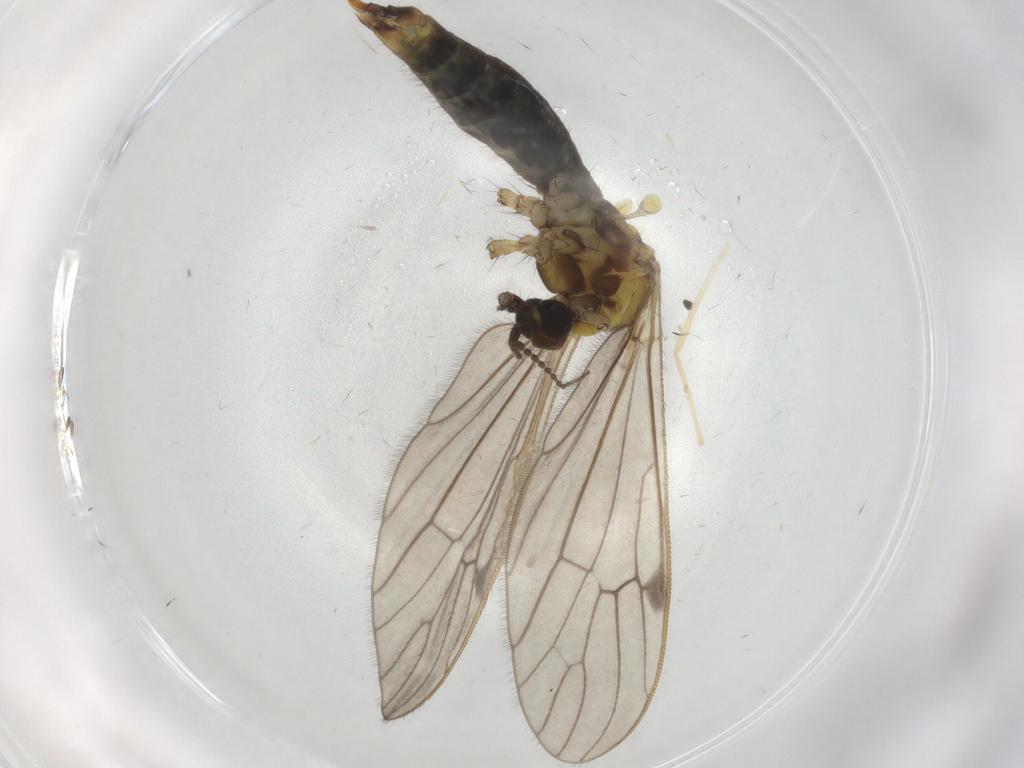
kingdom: Animalia
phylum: Arthropoda
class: Insecta
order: Diptera
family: Limoniidae
